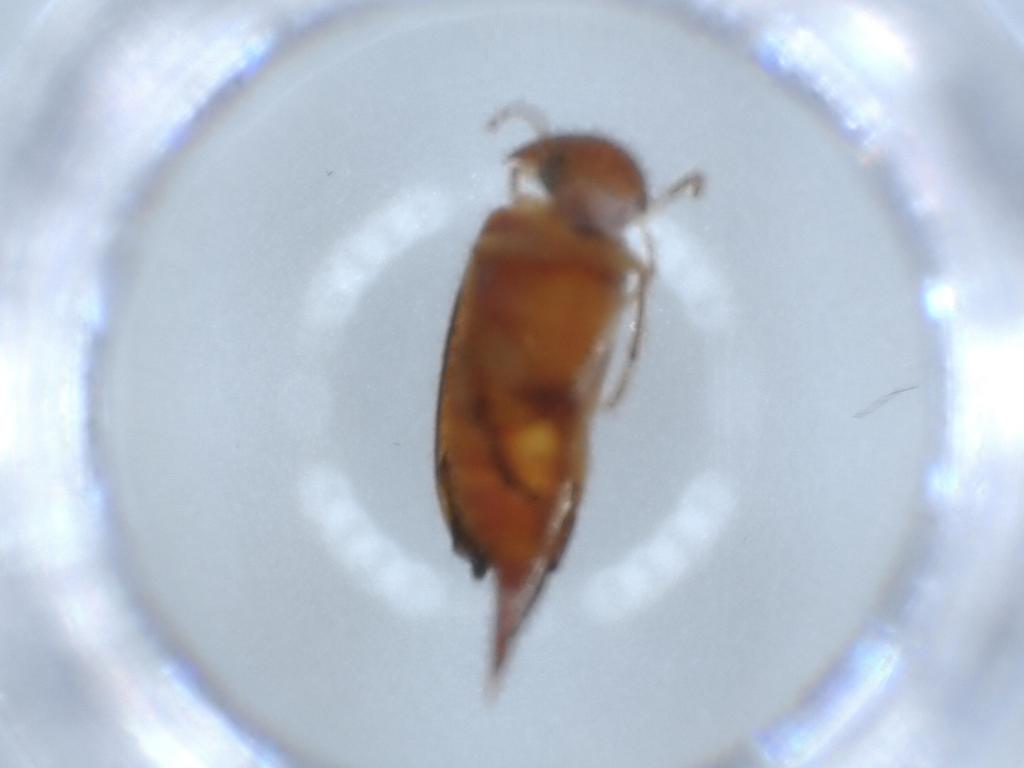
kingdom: Animalia
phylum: Arthropoda
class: Insecta
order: Coleoptera
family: Mordellidae
